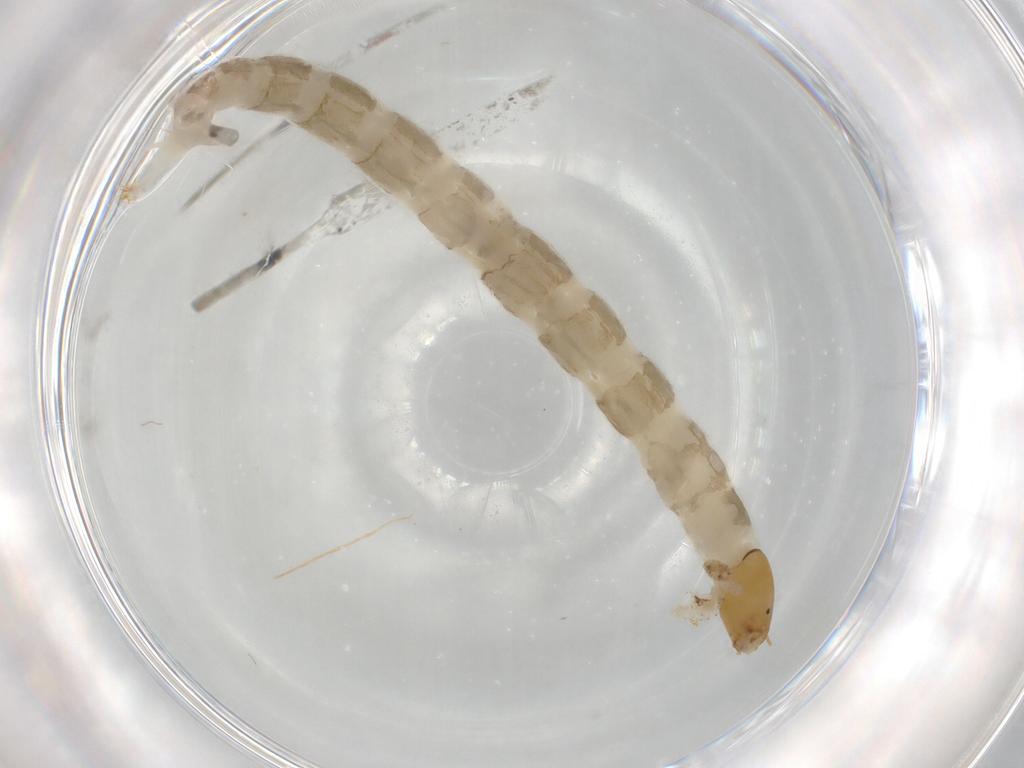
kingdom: Animalia
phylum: Arthropoda
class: Insecta
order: Diptera
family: Chironomidae
